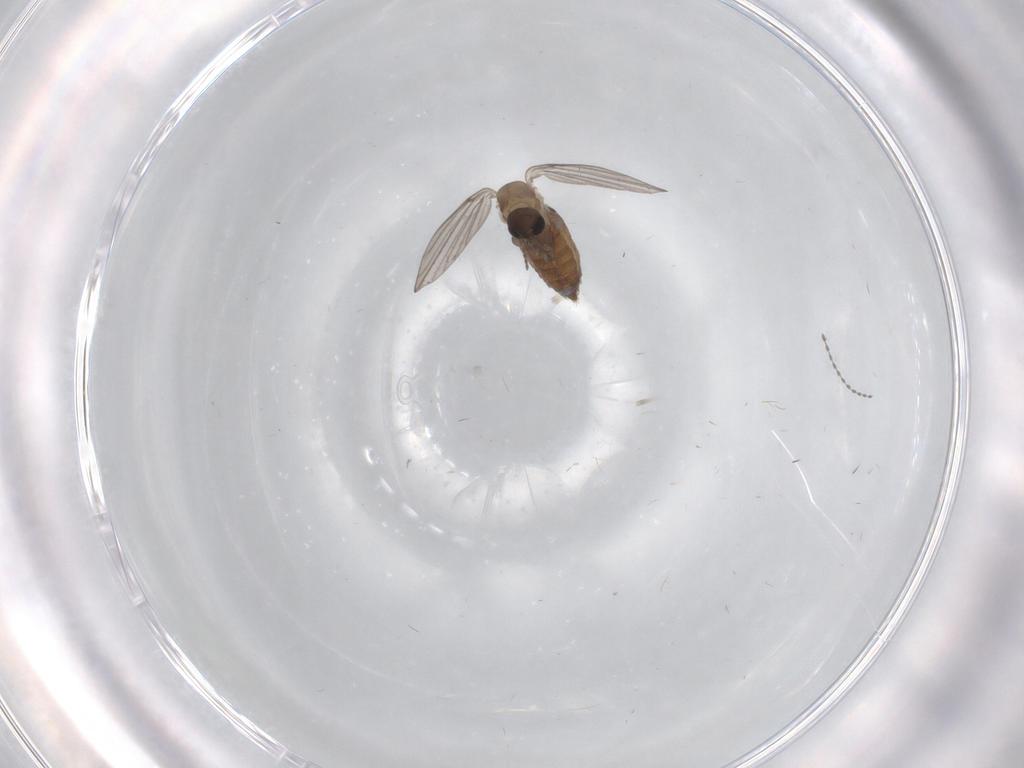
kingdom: Animalia
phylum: Arthropoda
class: Insecta
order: Diptera
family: Psychodidae
